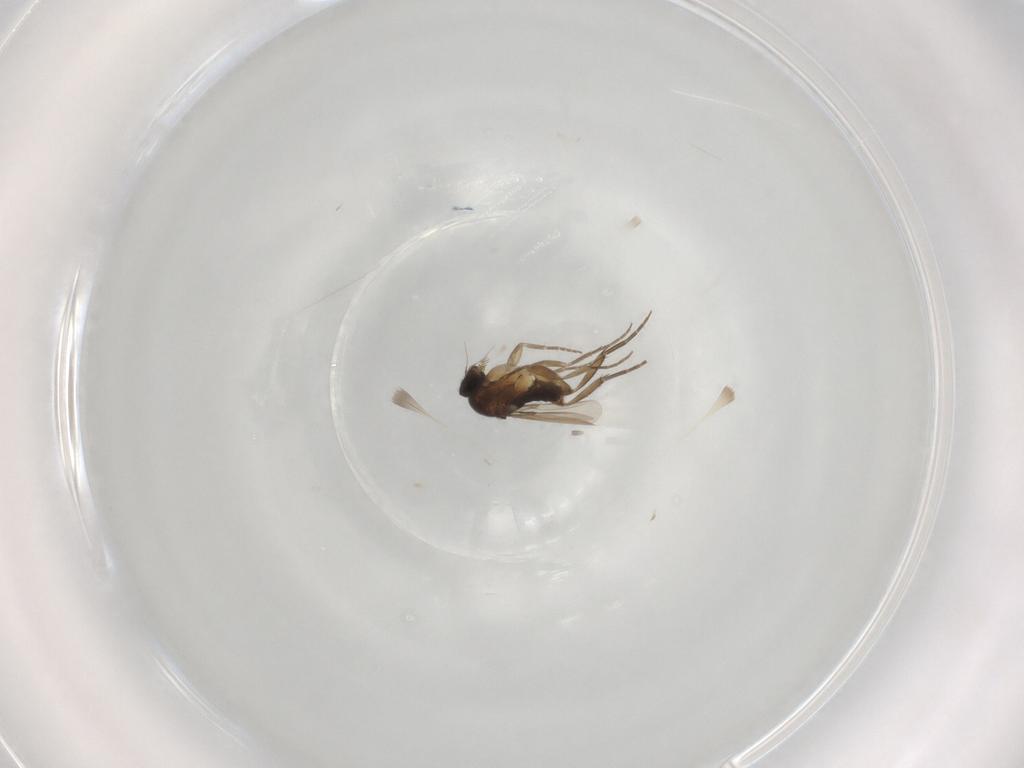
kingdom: Animalia
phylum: Arthropoda
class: Insecta
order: Diptera
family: Phoridae
